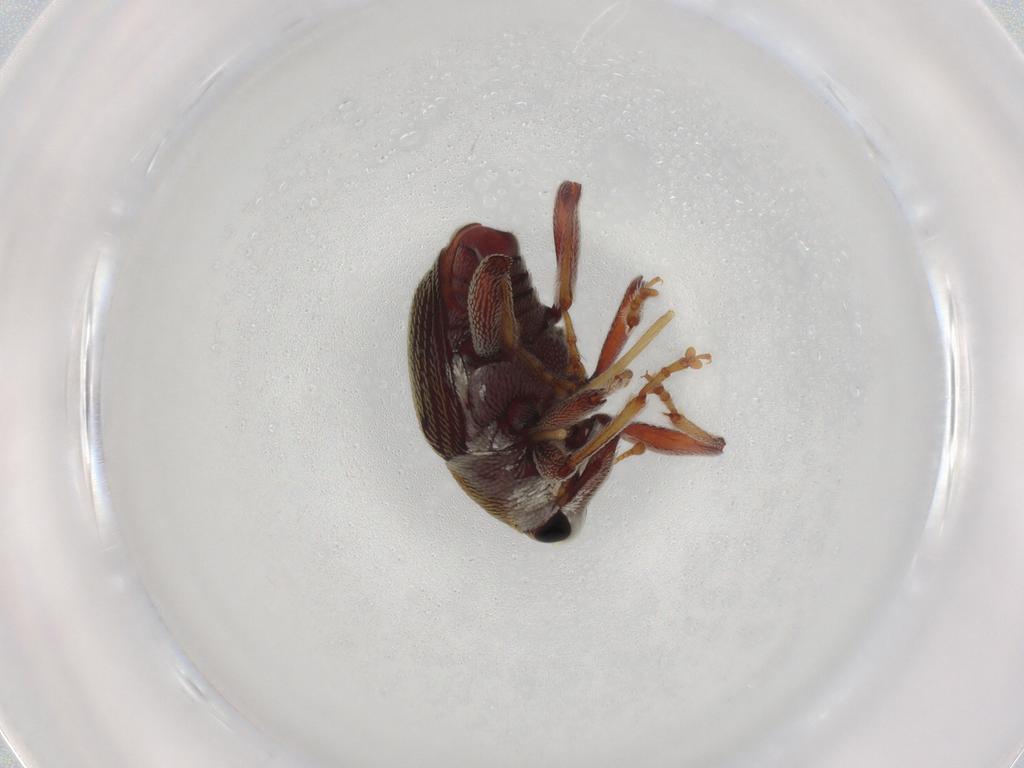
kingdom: Animalia
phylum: Arthropoda
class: Insecta
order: Coleoptera
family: Curculionidae
